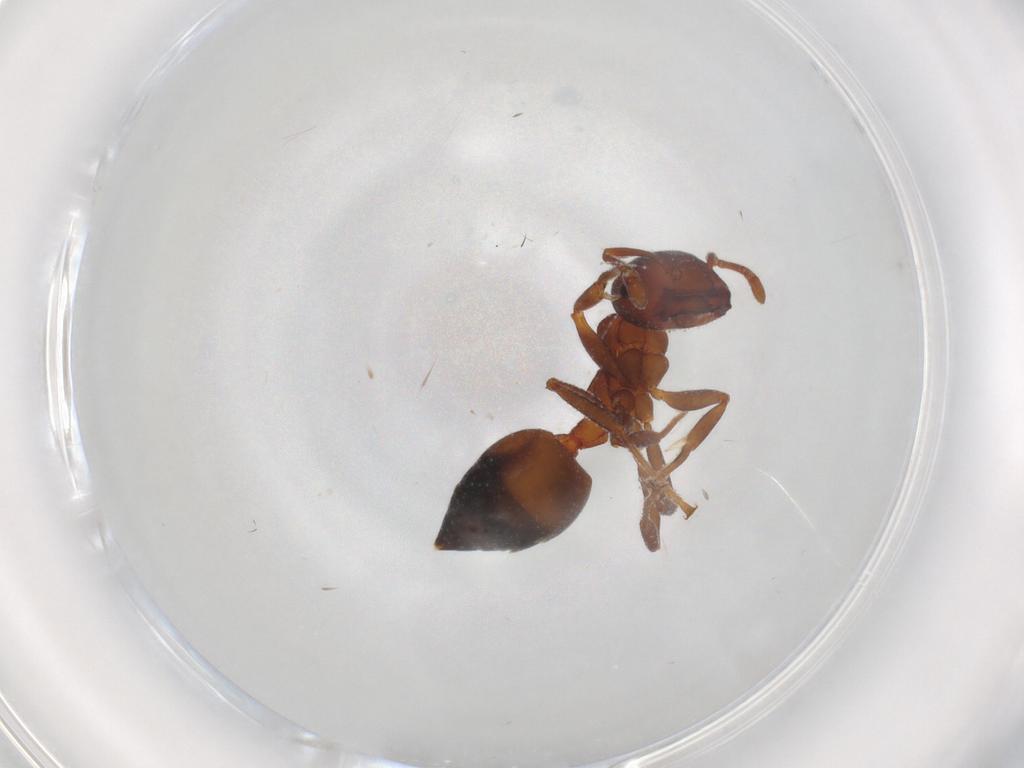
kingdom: Animalia
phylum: Arthropoda
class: Insecta
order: Hymenoptera
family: Formicidae
